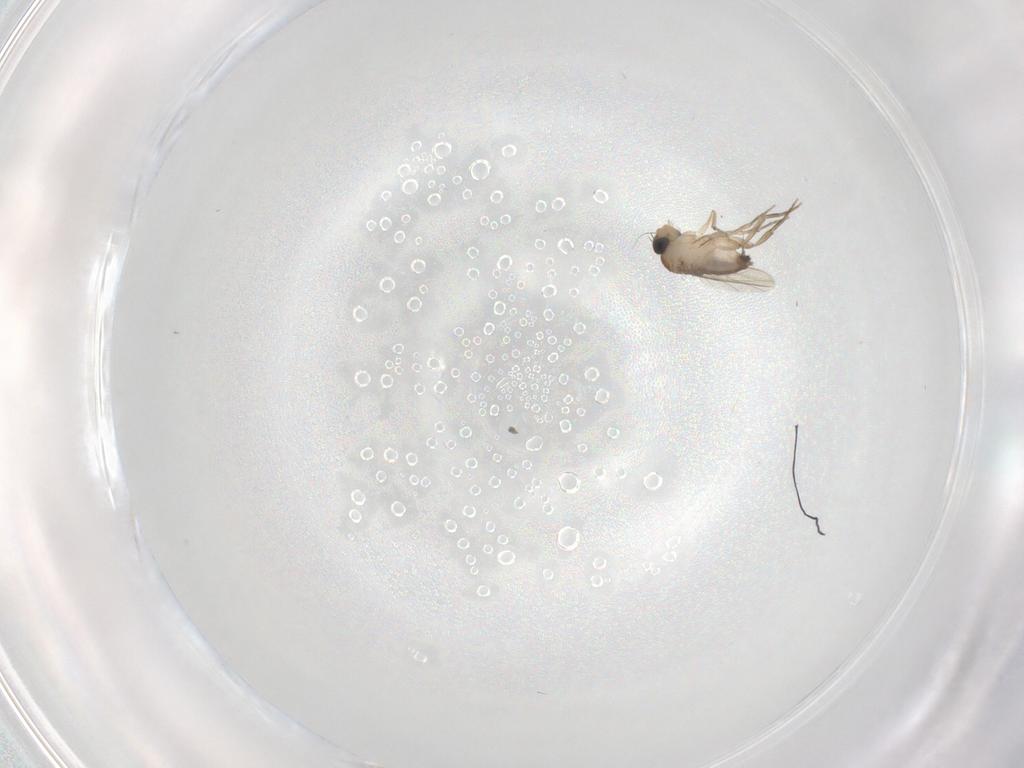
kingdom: Animalia
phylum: Arthropoda
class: Insecta
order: Diptera
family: Phoridae
